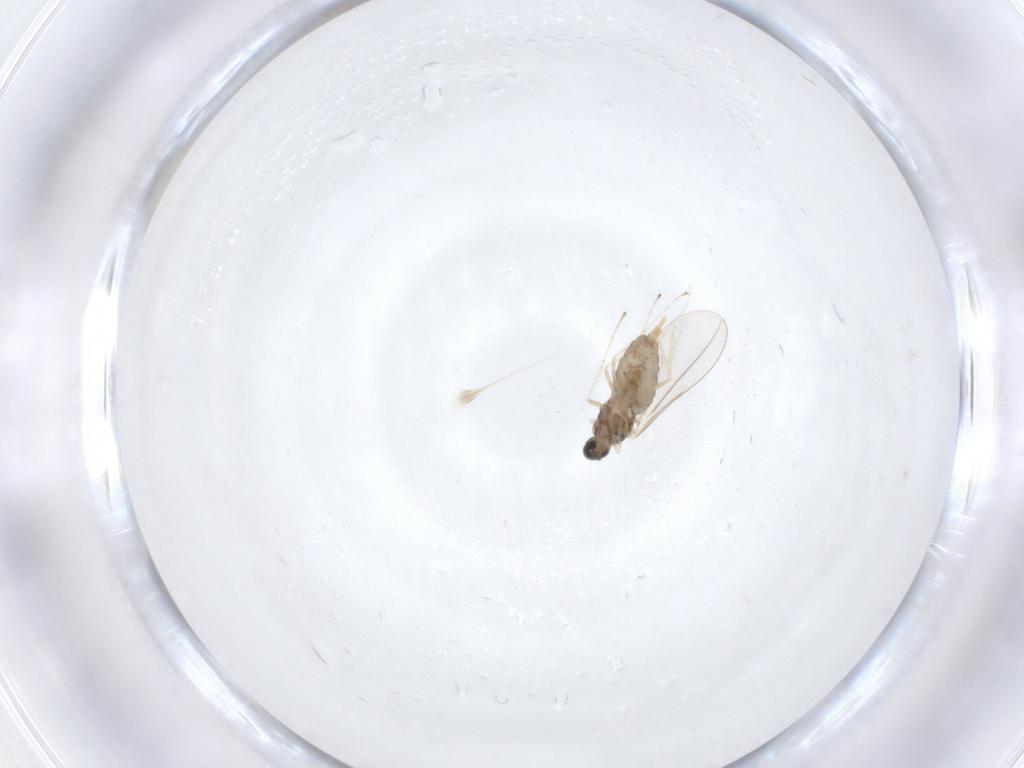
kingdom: Animalia
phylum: Arthropoda
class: Insecta
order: Diptera
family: Cecidomyiidae
